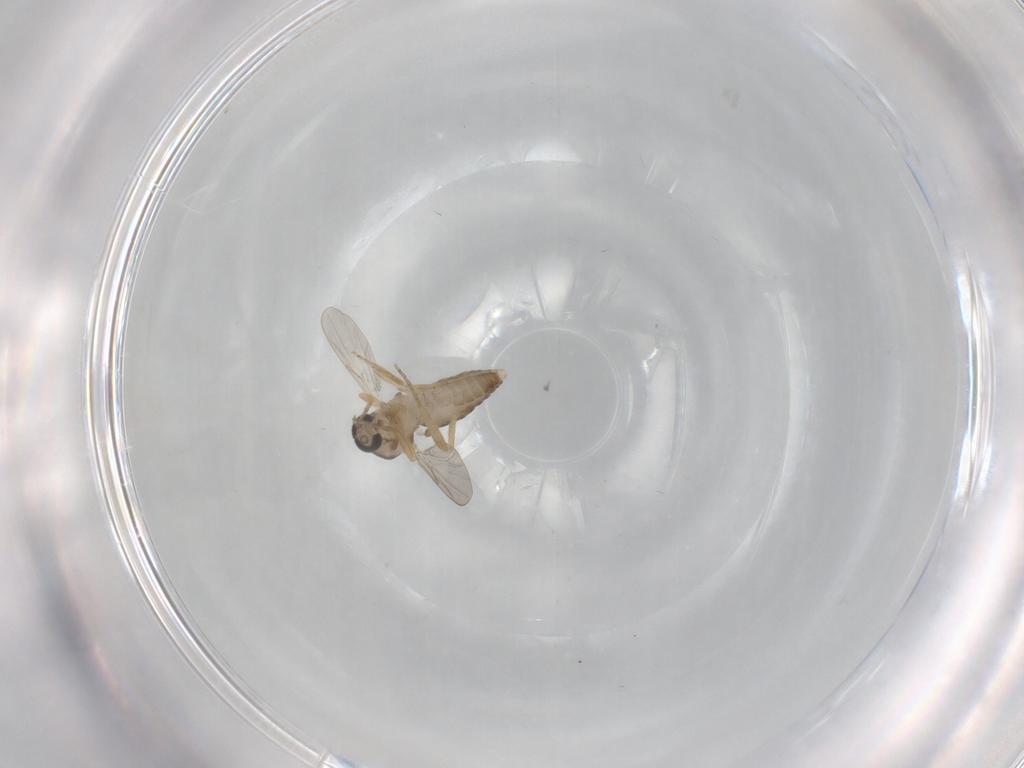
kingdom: Animalia
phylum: Arthropoda
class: Insecta
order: Diptera
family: Ceratopogonidae
